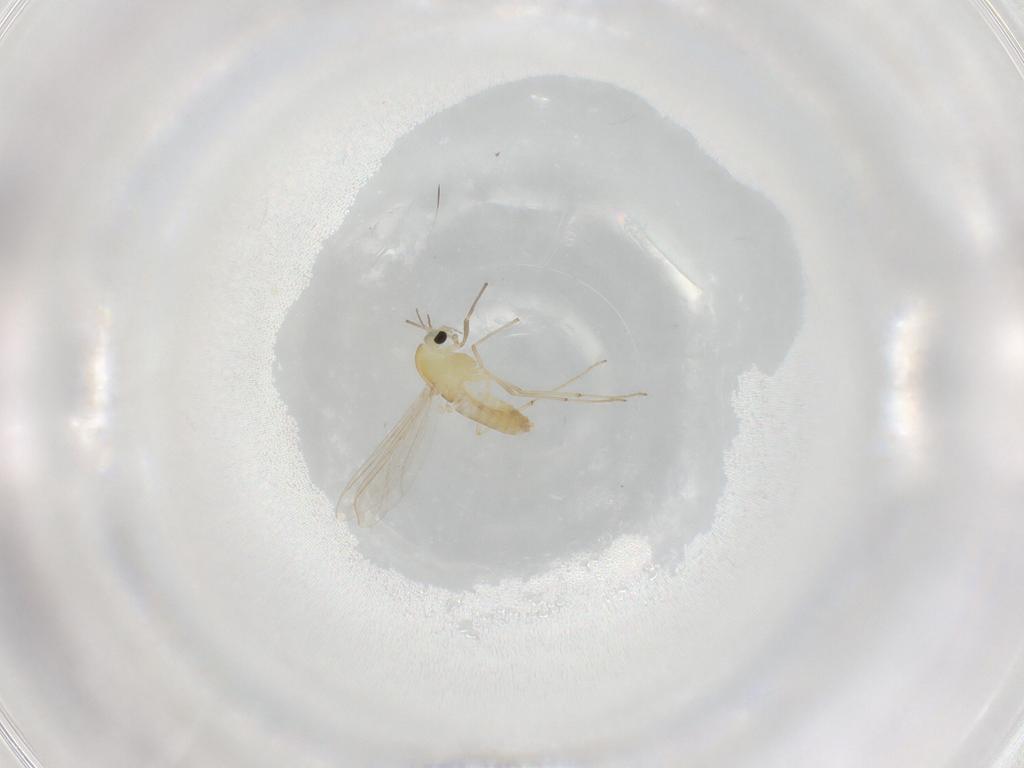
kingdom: Animalia
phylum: Arthropoda
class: Insecta
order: Diptera
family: Chironomidae
